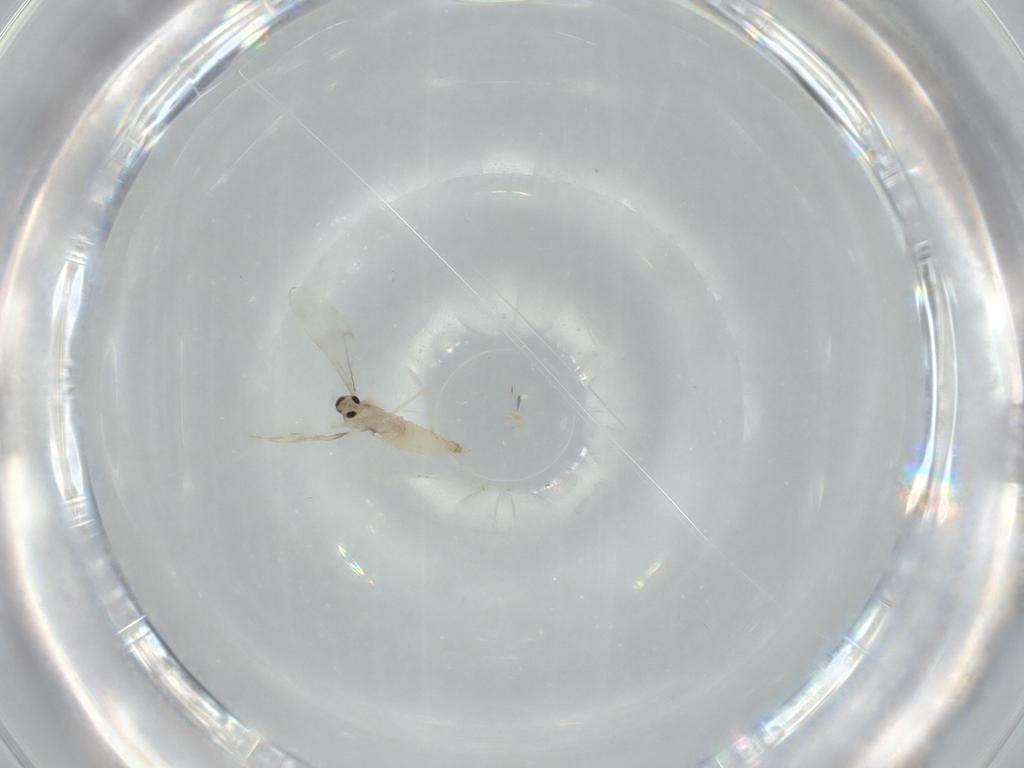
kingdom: Animalia
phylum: Arthropoda
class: Insecta
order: Diptera
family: Cecidomyiidae
